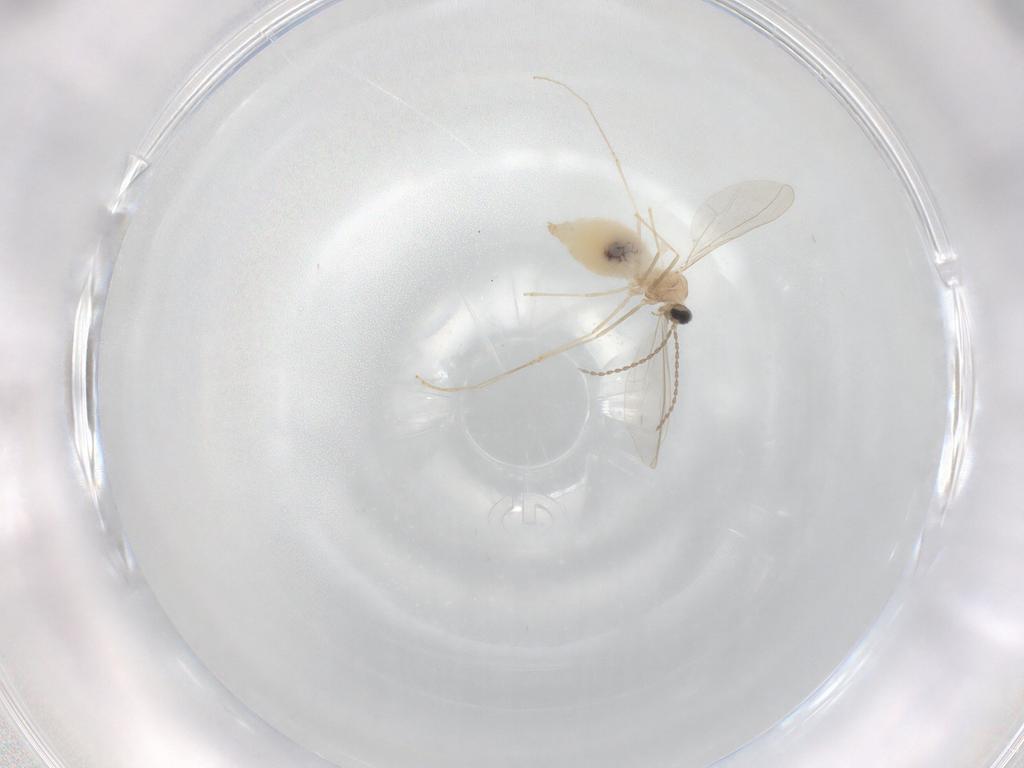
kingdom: Animalia
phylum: Arthropoda
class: Insecta
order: Diptera
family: Cecidomyiidae
